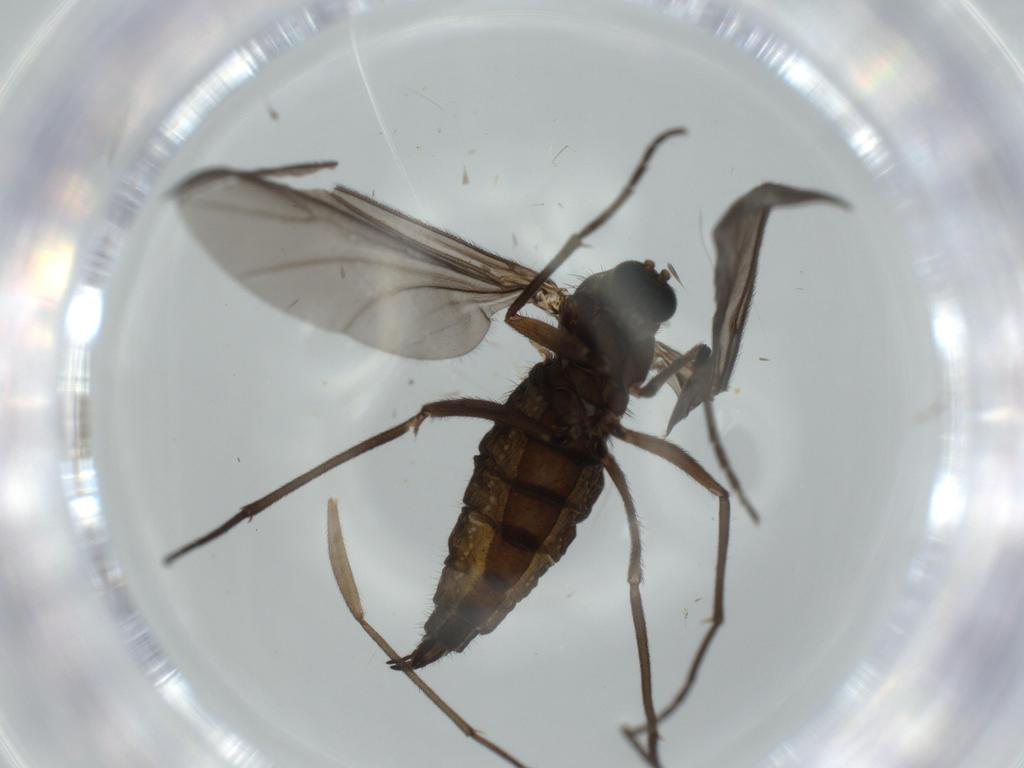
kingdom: Animalia
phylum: Arthropoda
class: Insecta
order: Diptera
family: Sciaridae
